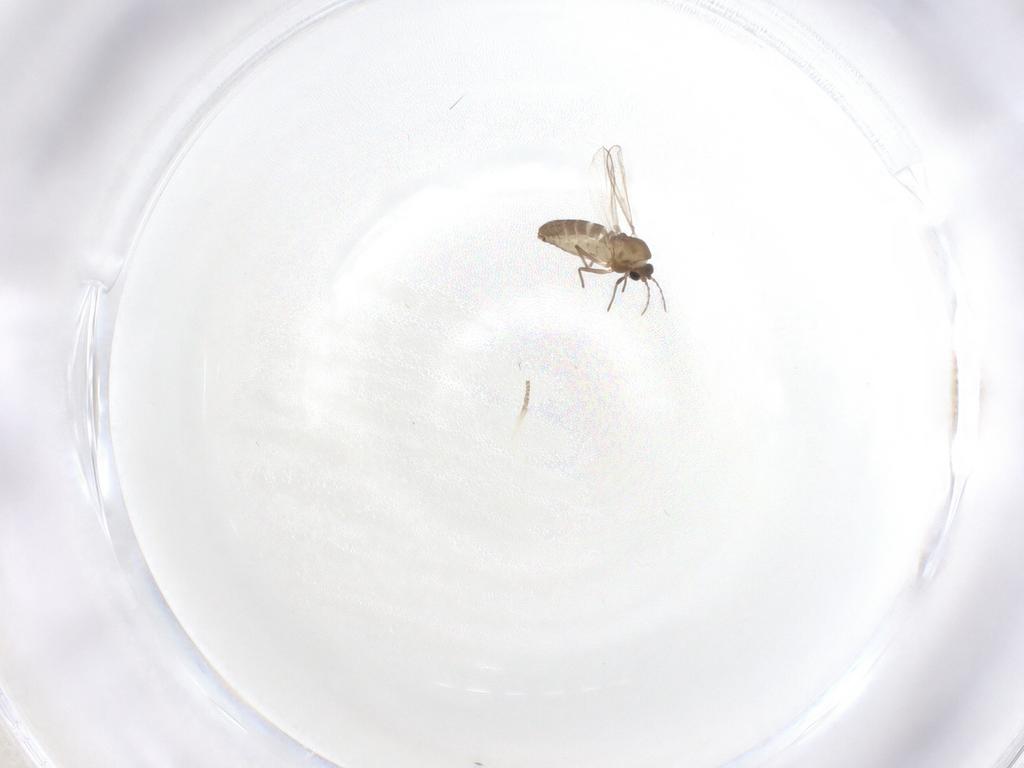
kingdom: Animalia
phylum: Arthropoda
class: Insecta
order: Diptera
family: Chironomidae
